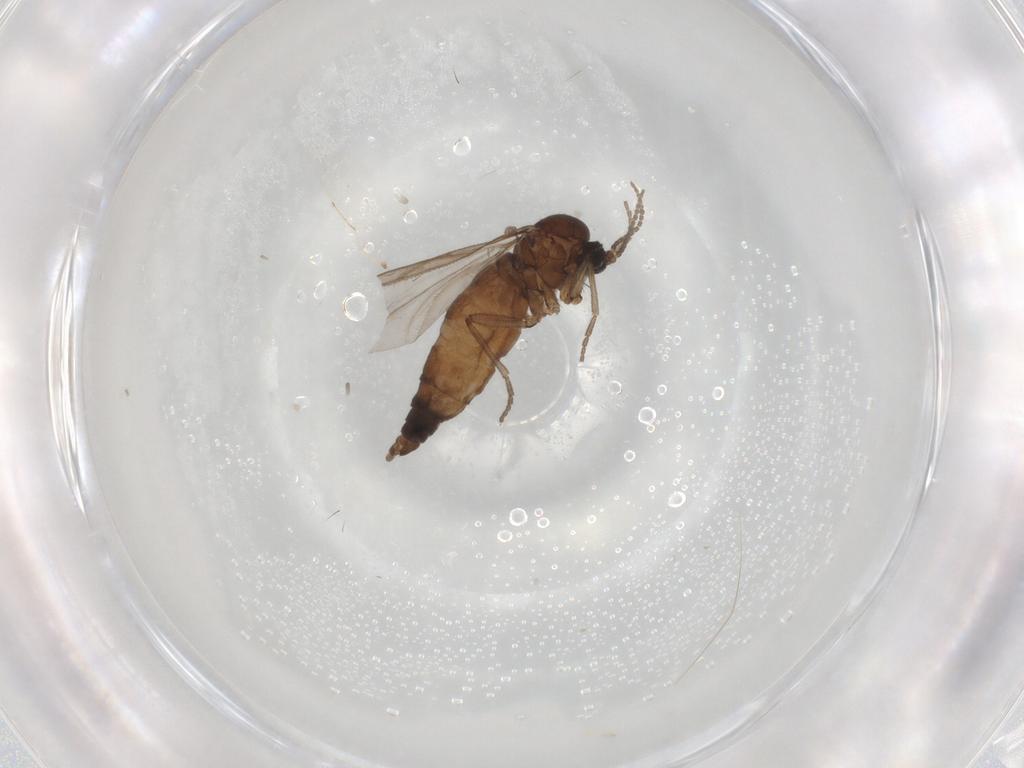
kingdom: Animalia
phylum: Arthropoda
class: Insecta
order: Diptera
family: Sciaridae
